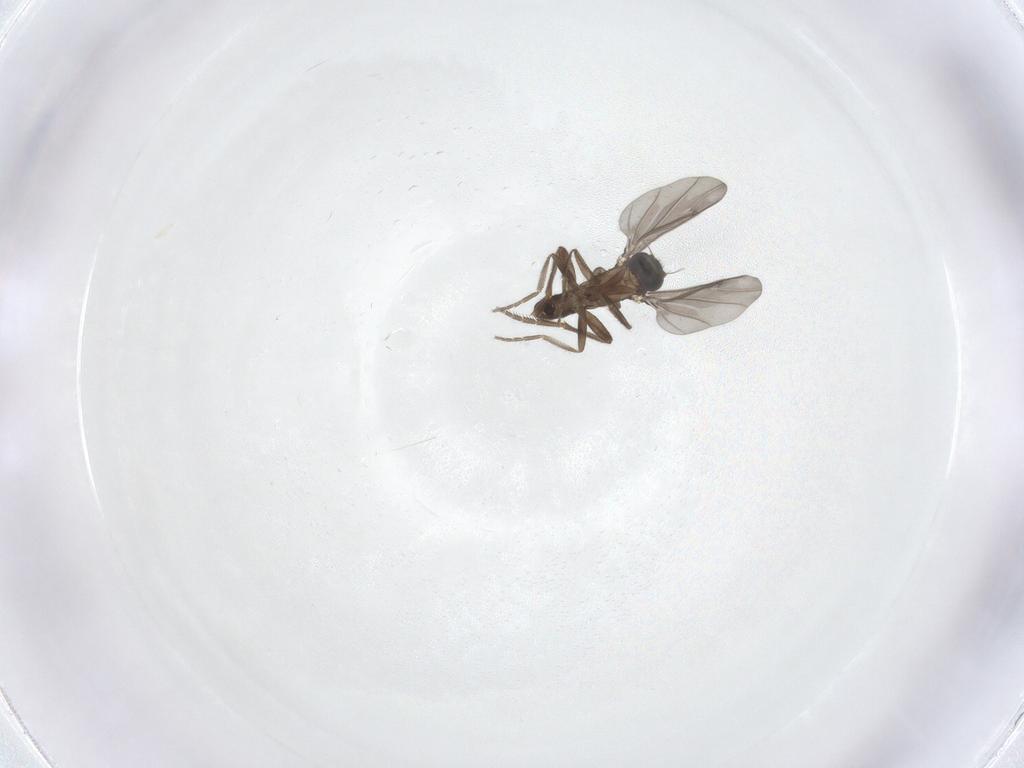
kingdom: Animalia
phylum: Arthropoda
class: Insecta
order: Diptera
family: Phoridae
